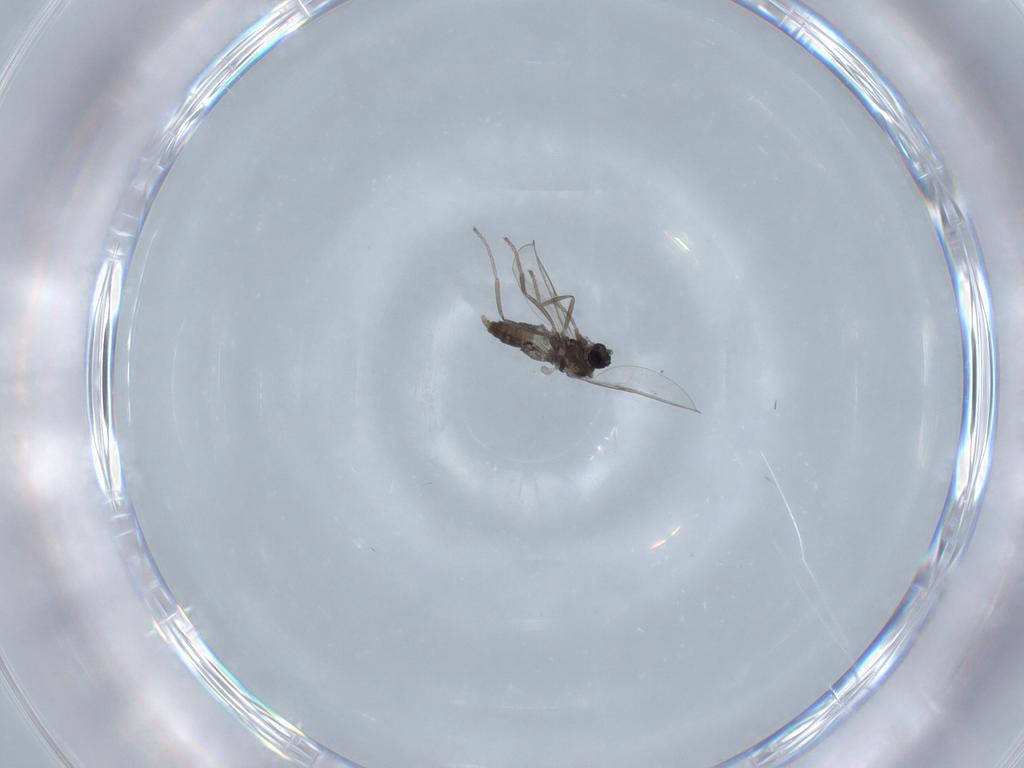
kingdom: Animalia
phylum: Arthropoda
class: Insecta
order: Diptera
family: Cecidomyiidae
